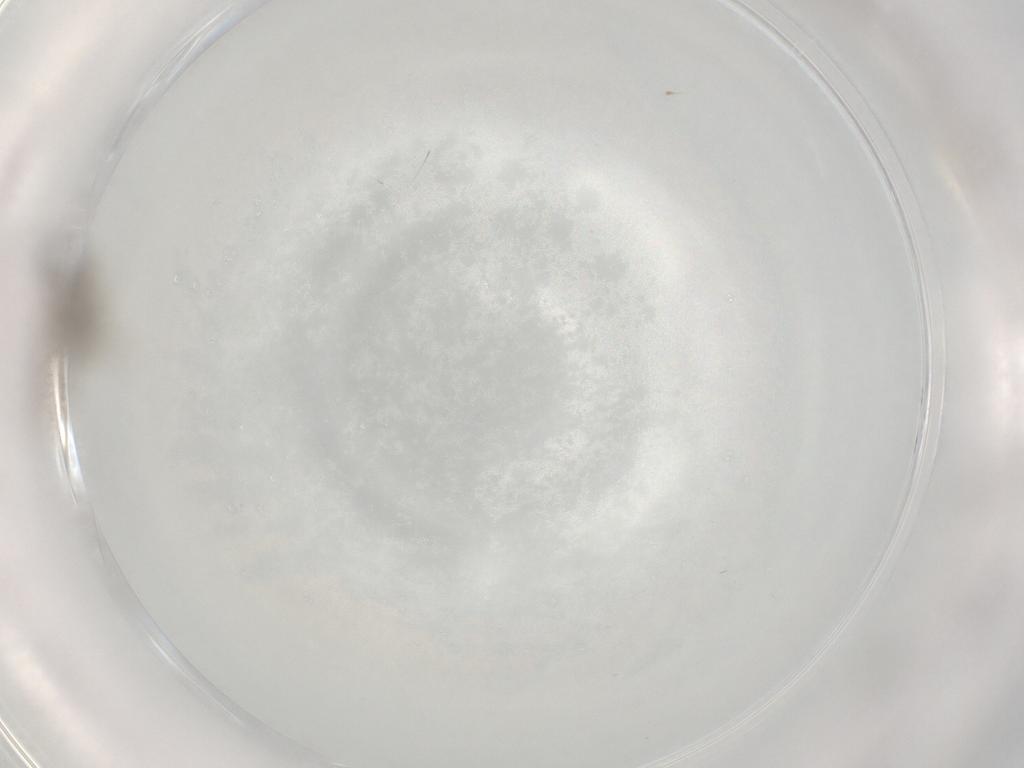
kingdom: Animalia
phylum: Arthropoda
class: Insecta
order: Diptera
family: Cecidomyiidae
